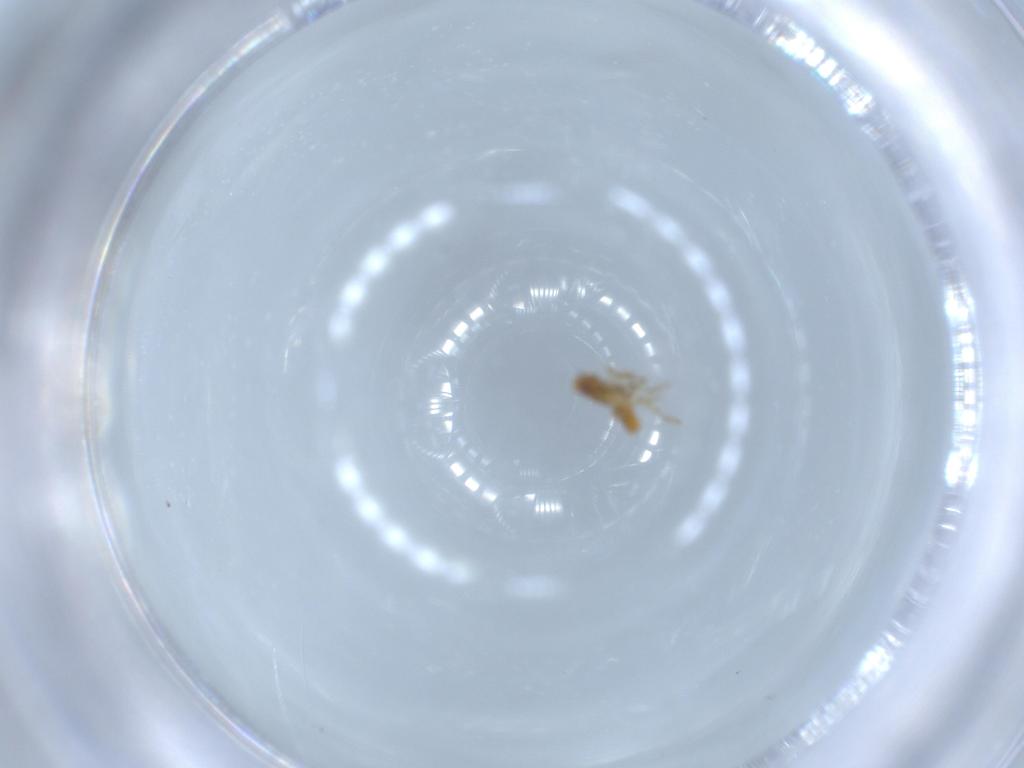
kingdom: Animalia
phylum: Arthropoda
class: Insecta
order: Hemiptera
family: Delphacidae
